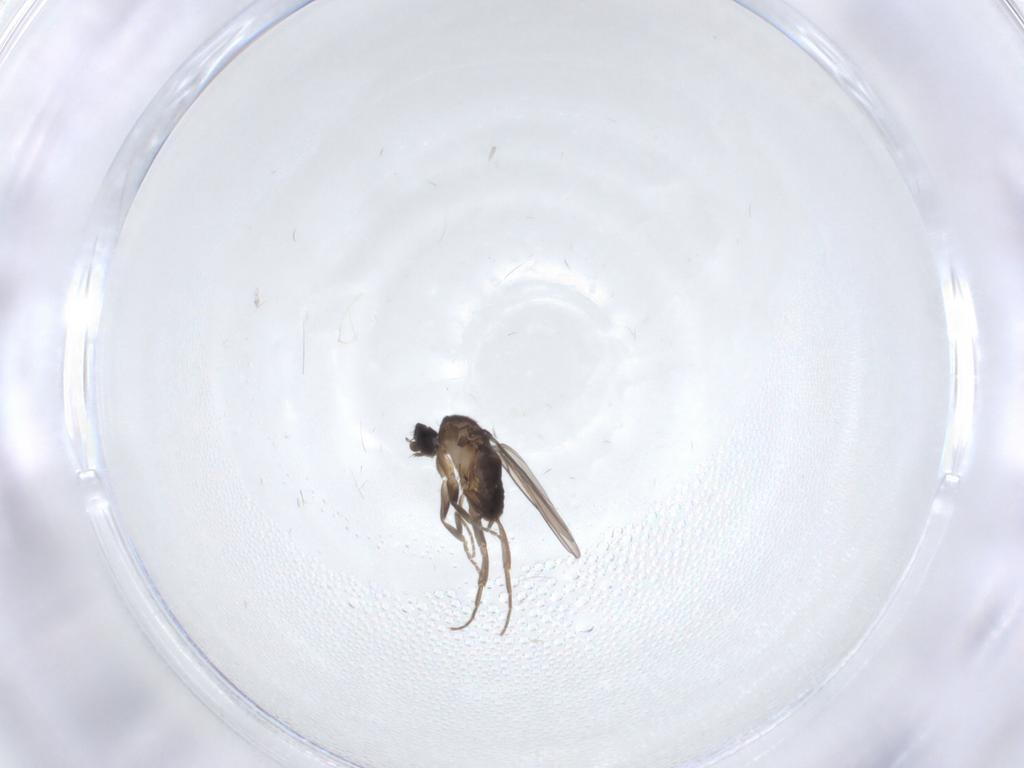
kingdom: Animalia
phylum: Arthropoda
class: Insecta
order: Diptera
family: Phoridae
